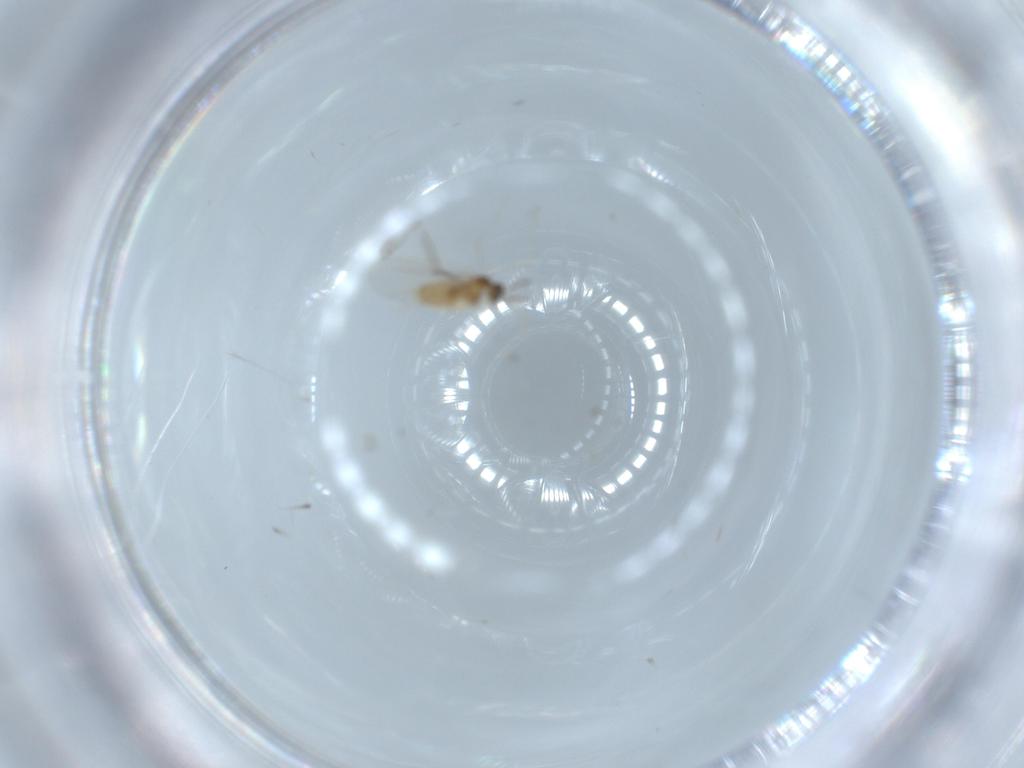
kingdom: Animalia
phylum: Arthropoda
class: Insecta
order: Diptera
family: Cecidomyiidae
